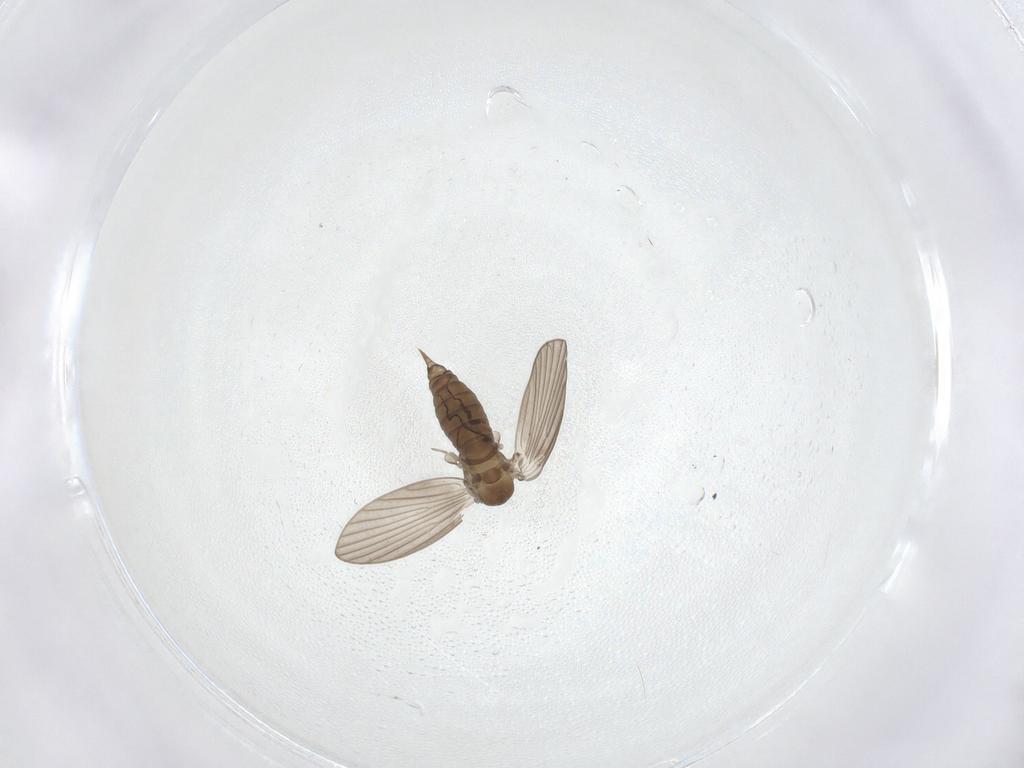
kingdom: Animalia
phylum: Arthropoda
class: Insecta
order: Diptera
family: Psychodidae
